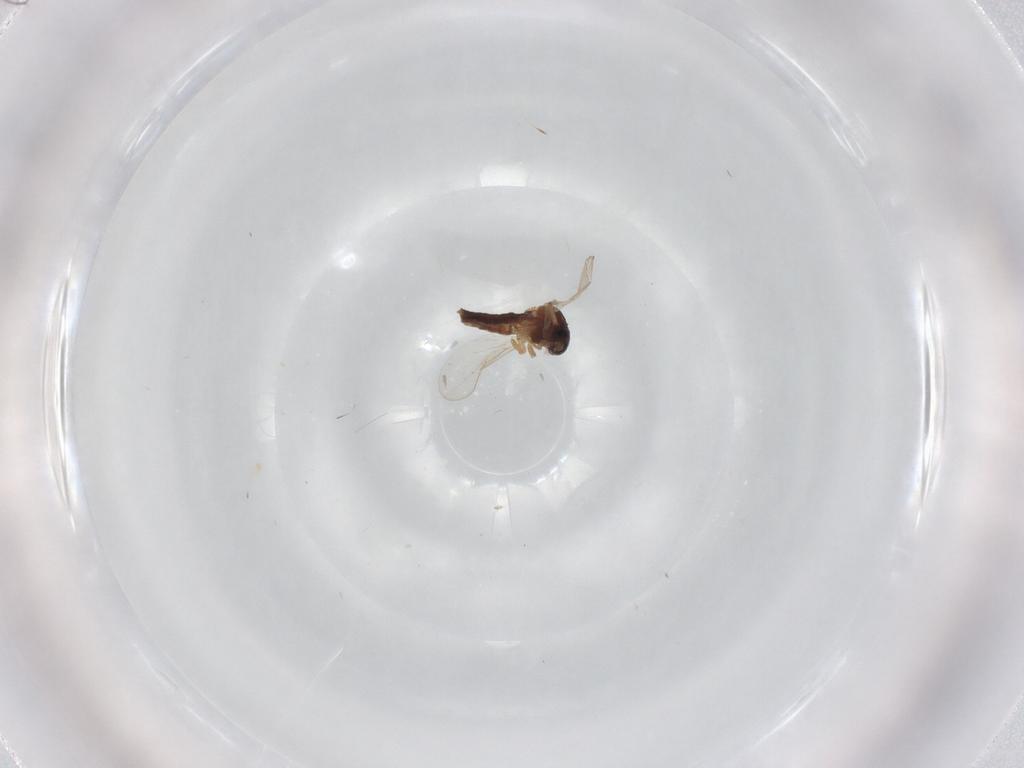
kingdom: Animalia
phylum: Arthropoda
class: Insecta
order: Diptera
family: Ceratopogonidae
